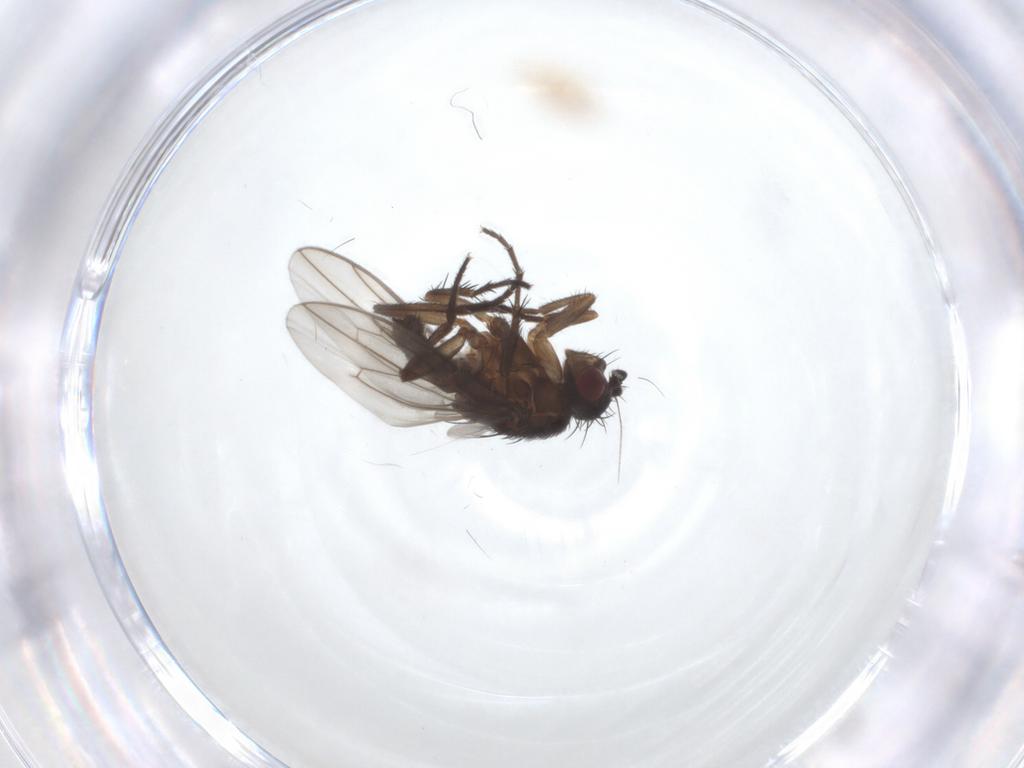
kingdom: Animalia
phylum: Arthropoda
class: Insecta
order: Diptera
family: Sphaeroceridae
